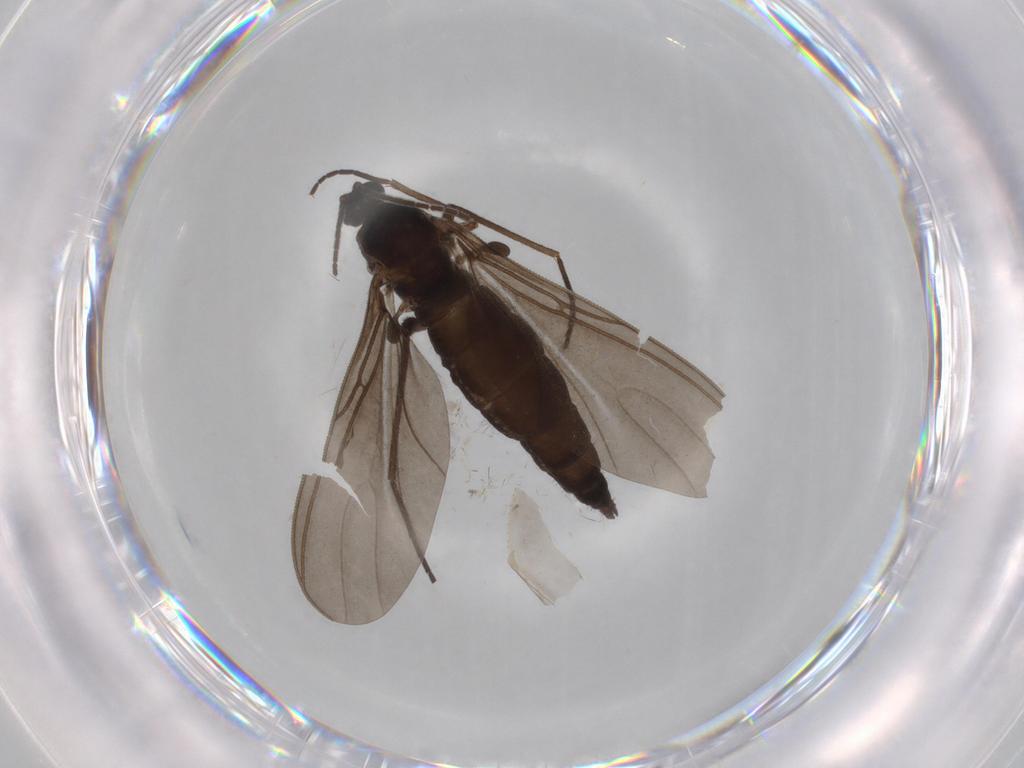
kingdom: Animalia
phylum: Arthropoda
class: Insecta
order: Diptera
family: Sciaridae
